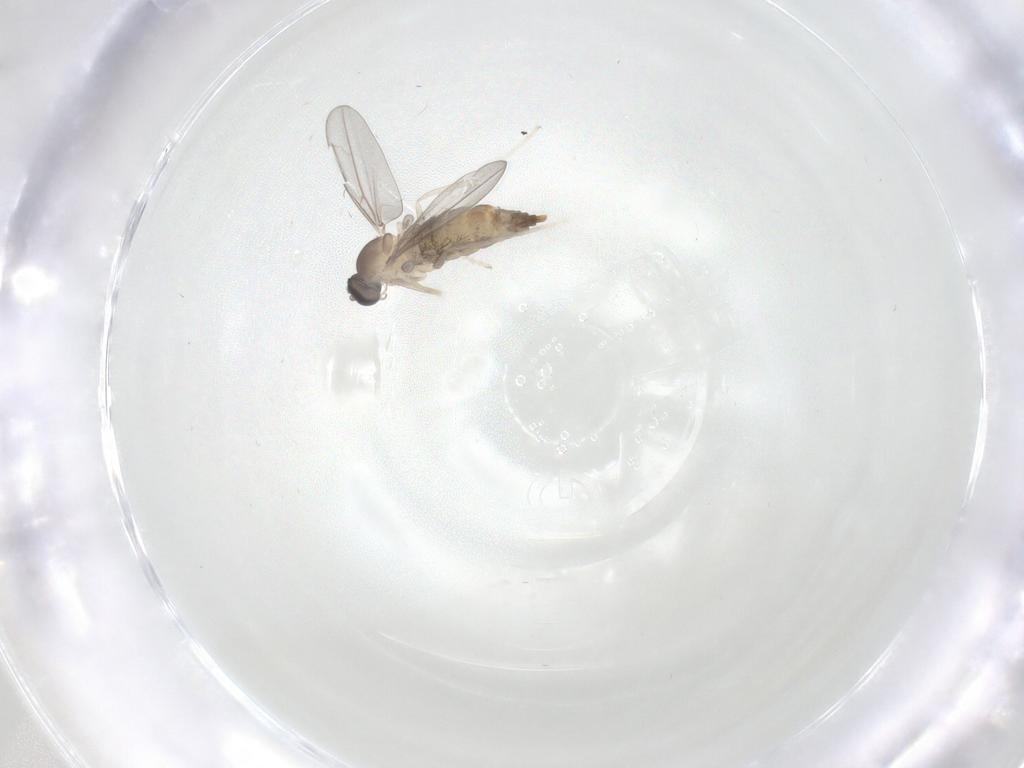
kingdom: Animalia
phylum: Arthropoda
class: Insecta
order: Diptera
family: Cecidomyiidae
